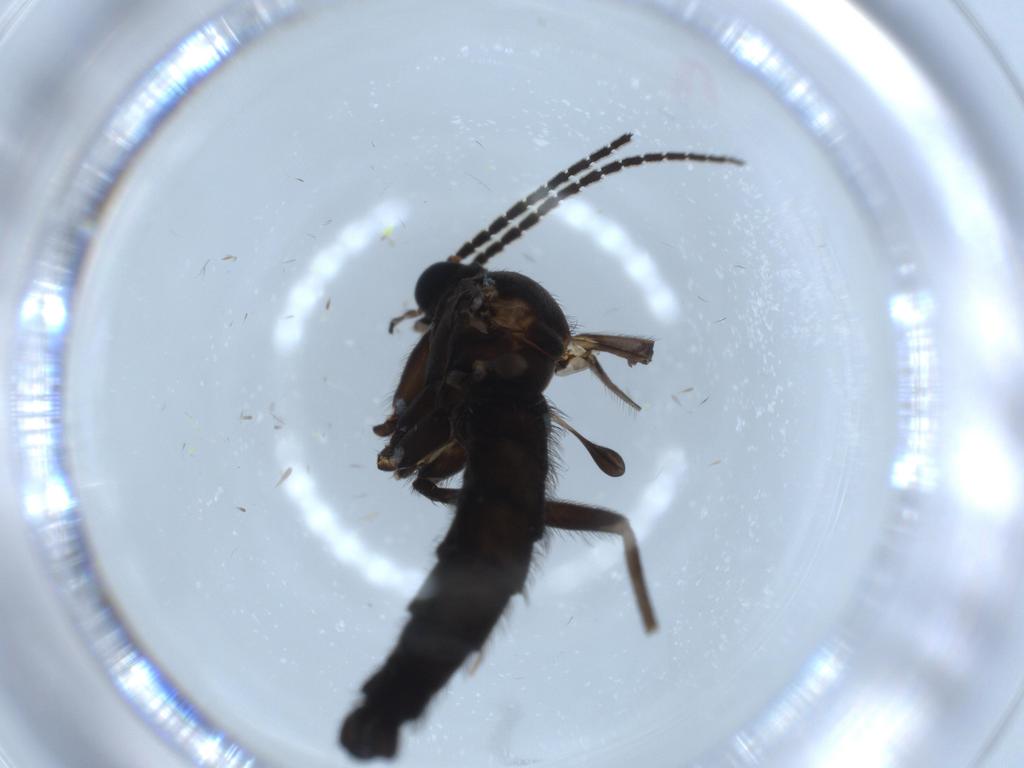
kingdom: Animalia
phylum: Arthropoda
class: Insecta
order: Diptera
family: Sciaridae
